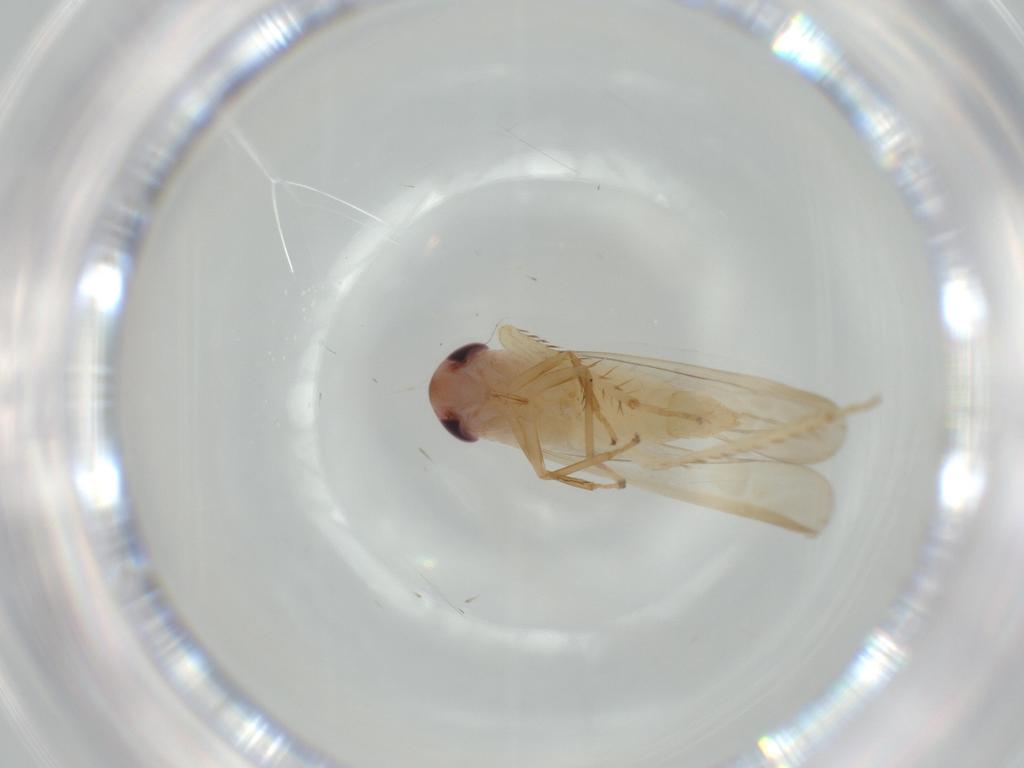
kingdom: Animalia
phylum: Arthropoda
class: Insecta
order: Hemiptera
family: Cicadellidae
